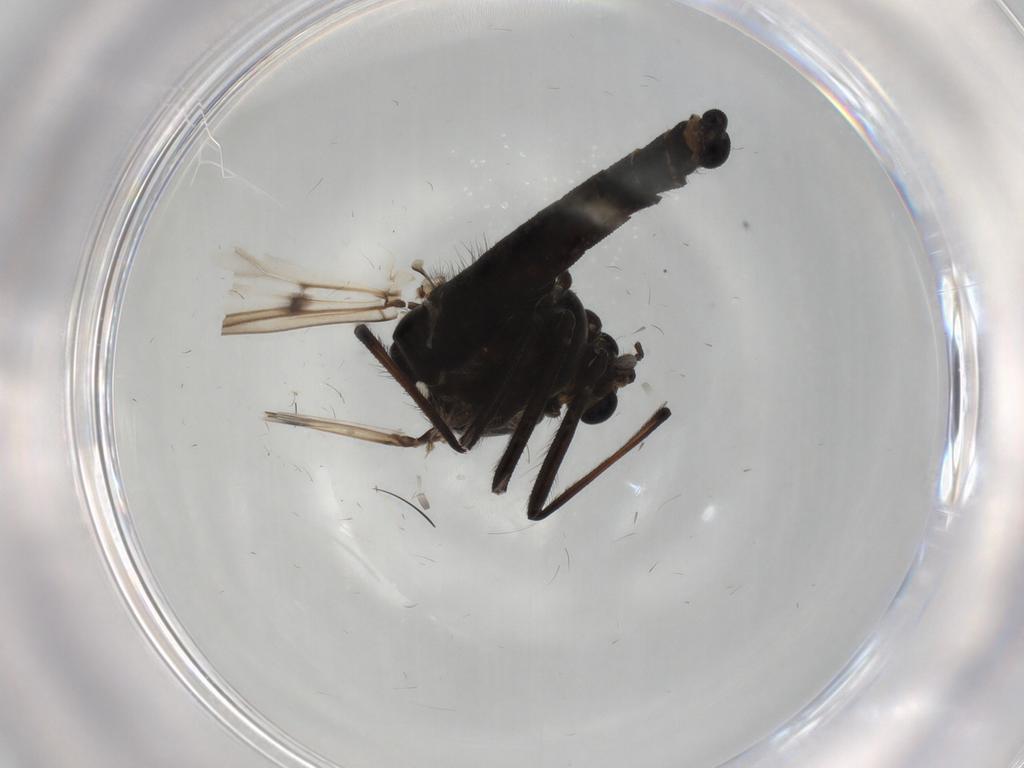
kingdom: Animalia
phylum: Arthropoda
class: Insecta
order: Diptera
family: Chironomidae
